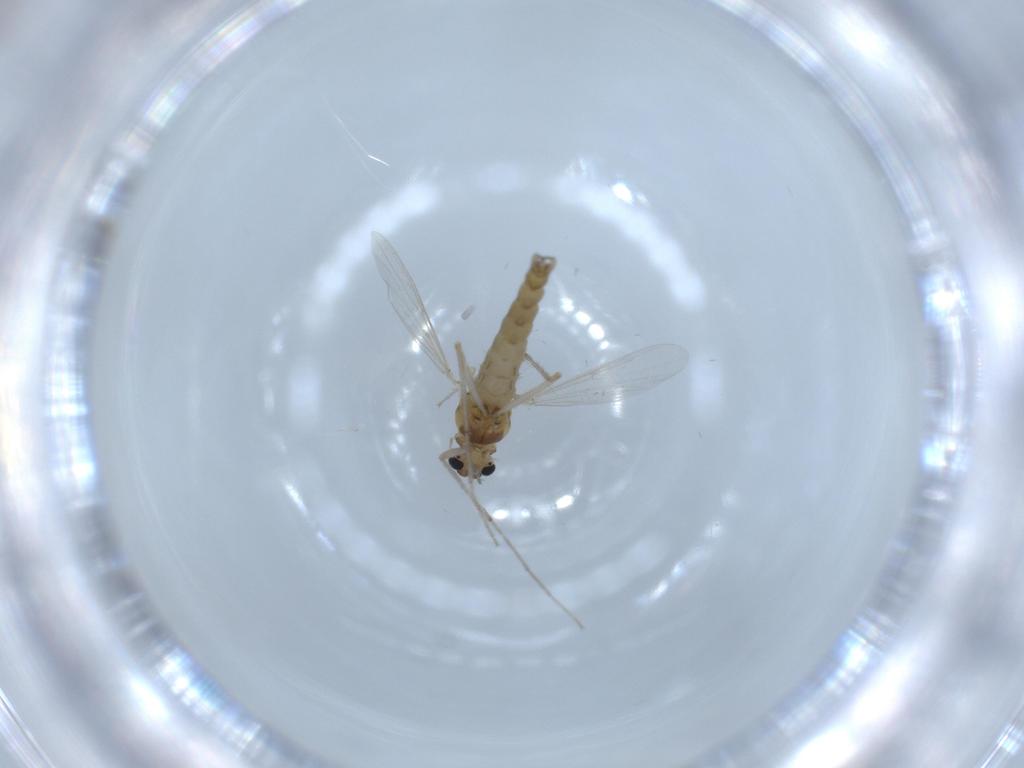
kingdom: Animalia
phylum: Arthropoda
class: Insecta
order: Diptera
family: Chironomidae
